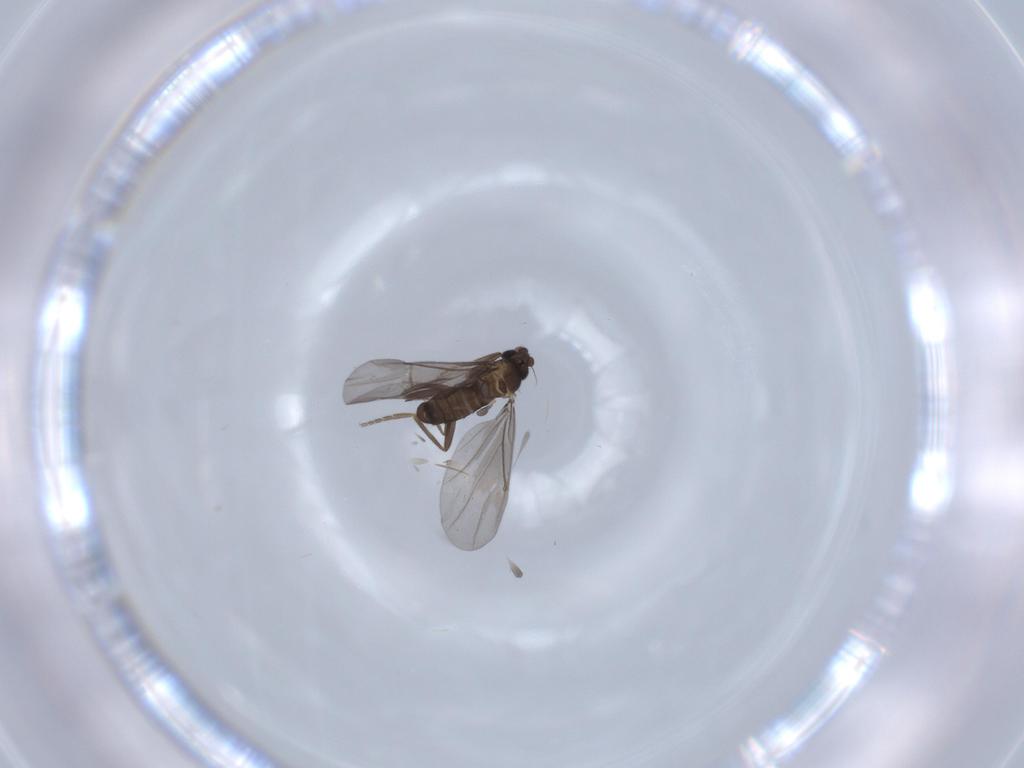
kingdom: Animalia
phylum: Arthropoda
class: Insecta
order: Diptera
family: Phoridae
